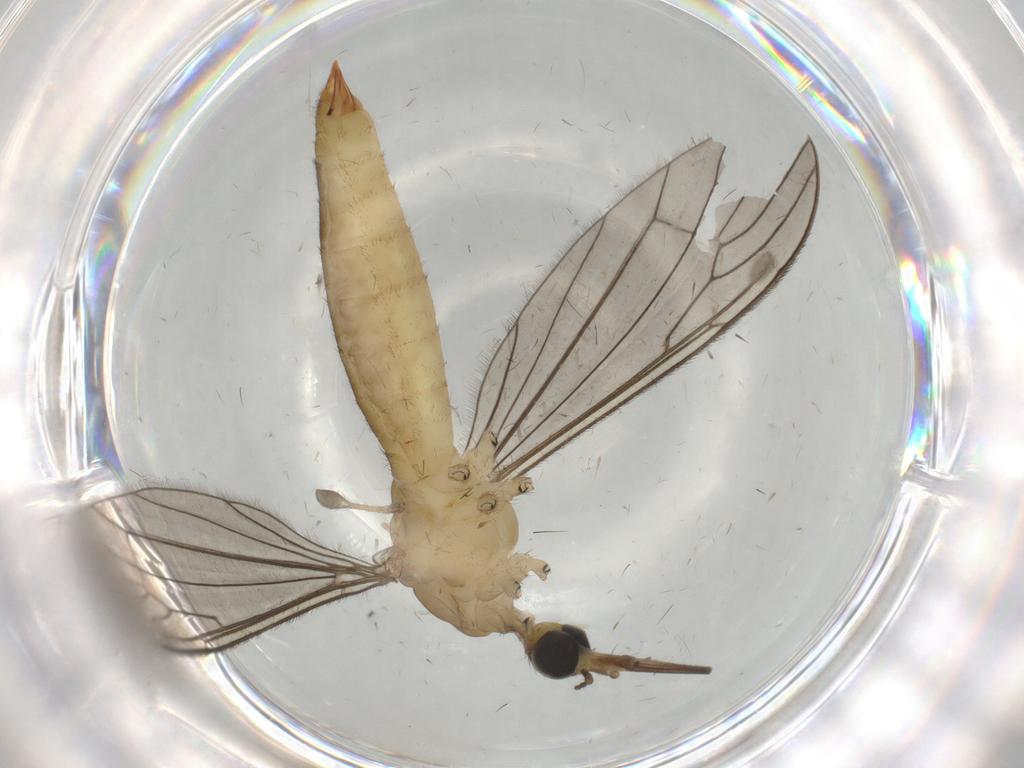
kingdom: Animalia
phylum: Arthropoda
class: Insecta
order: Diptera
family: Limoniidae
